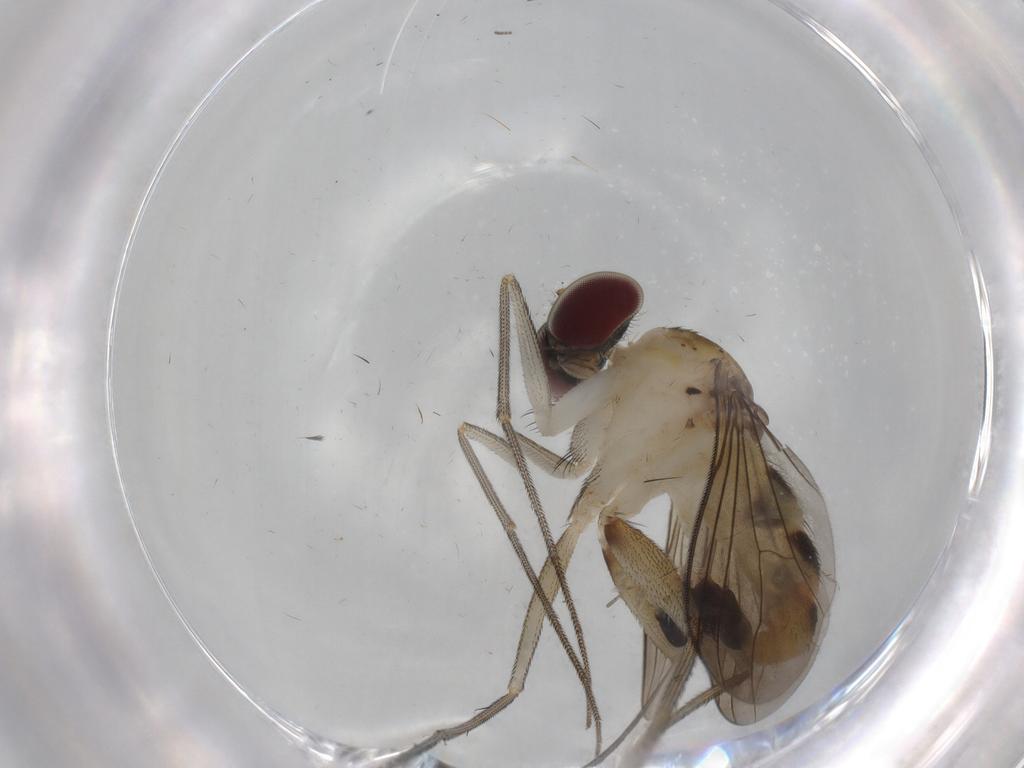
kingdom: Animalia
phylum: Arthropoda
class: Insecta
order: Diptera
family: Dolichopodidae
